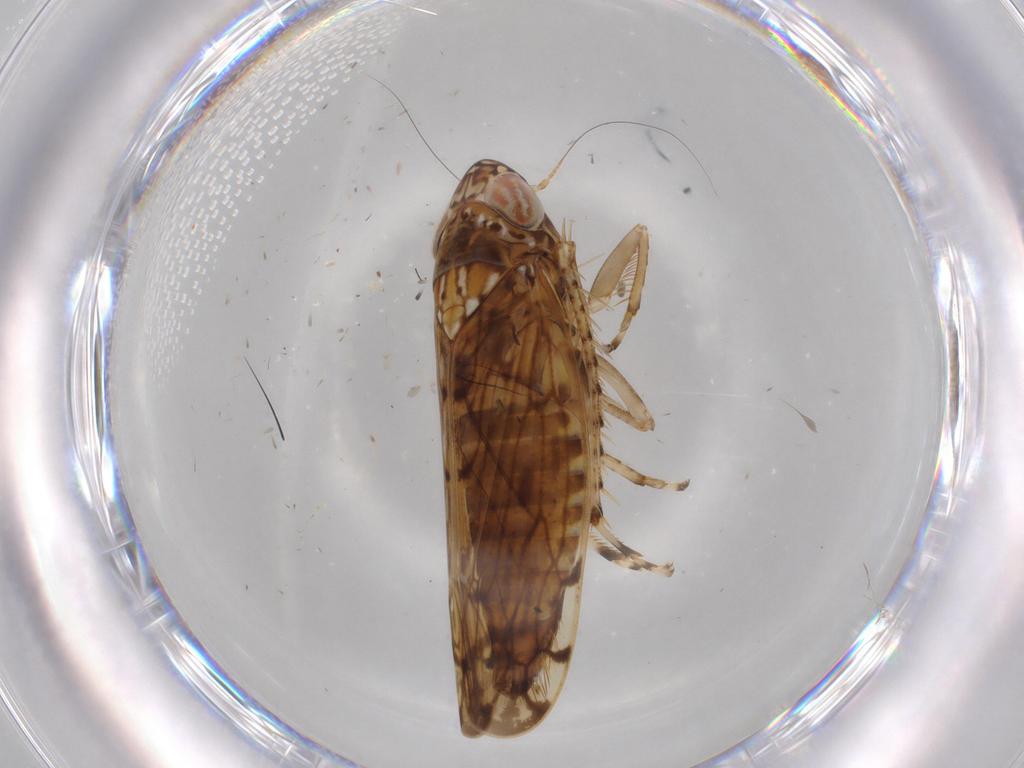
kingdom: Animalia
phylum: Arthropoda
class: Insecta
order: Hemiptera
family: Cicadellidae
